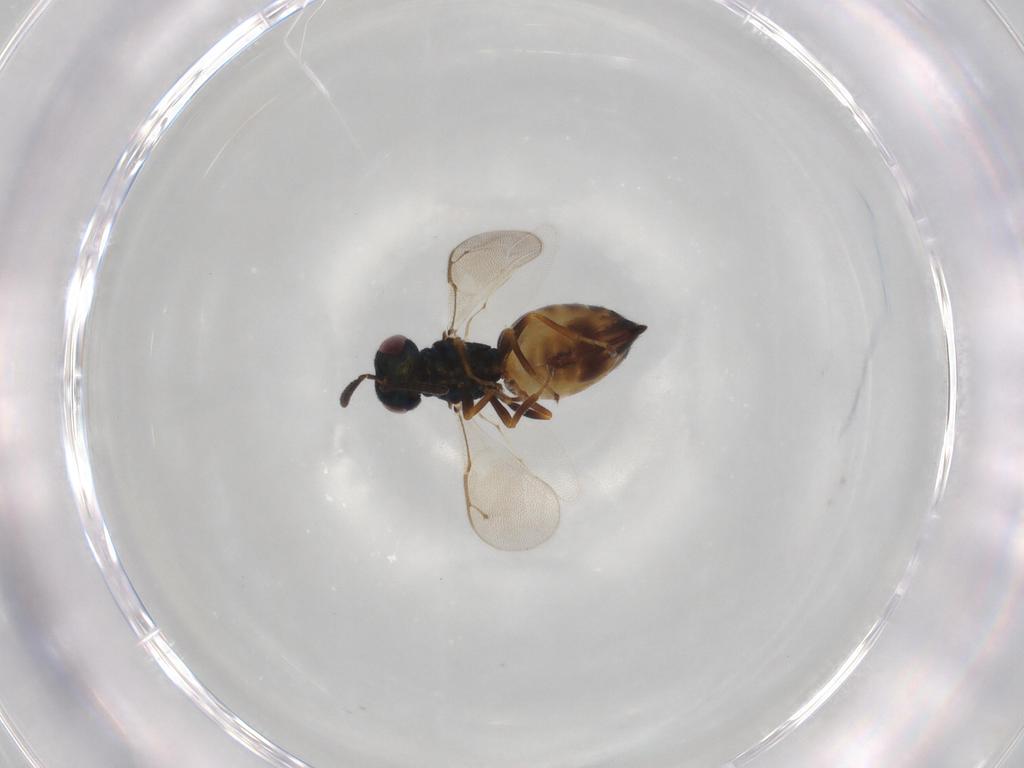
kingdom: Animalia
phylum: Arthropoda
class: Insecta
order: Hymenoptera
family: Pteromalidae
